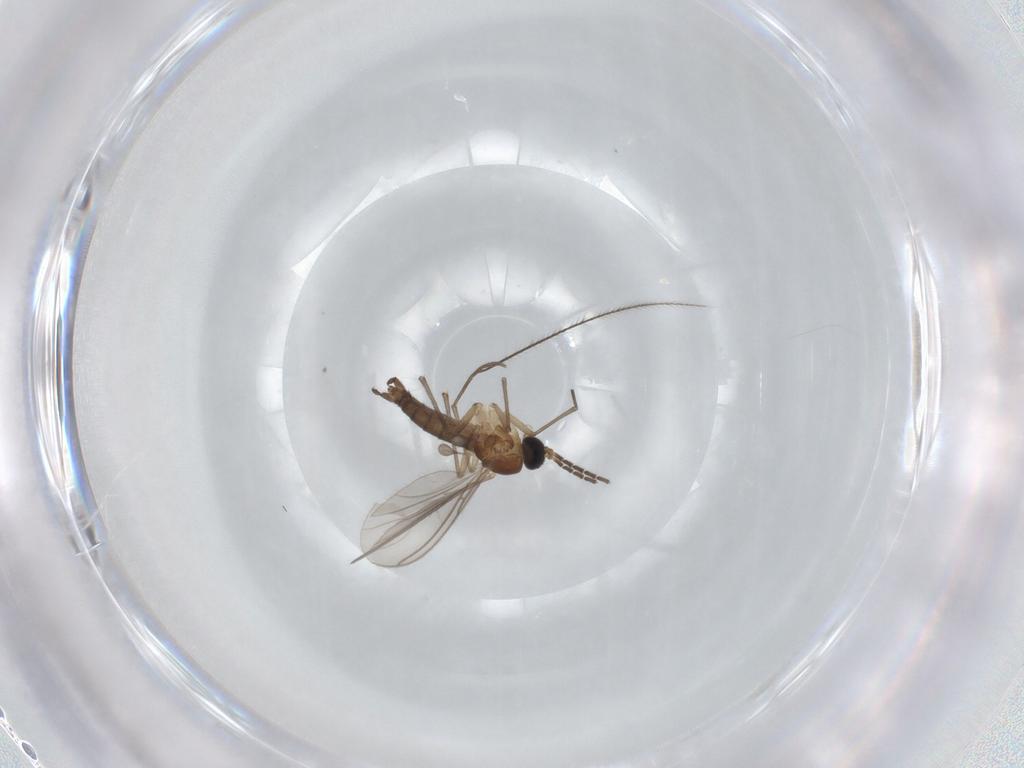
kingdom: Animalia
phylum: Arthropoda
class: Insecta
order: Diptera
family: Sciaridae
